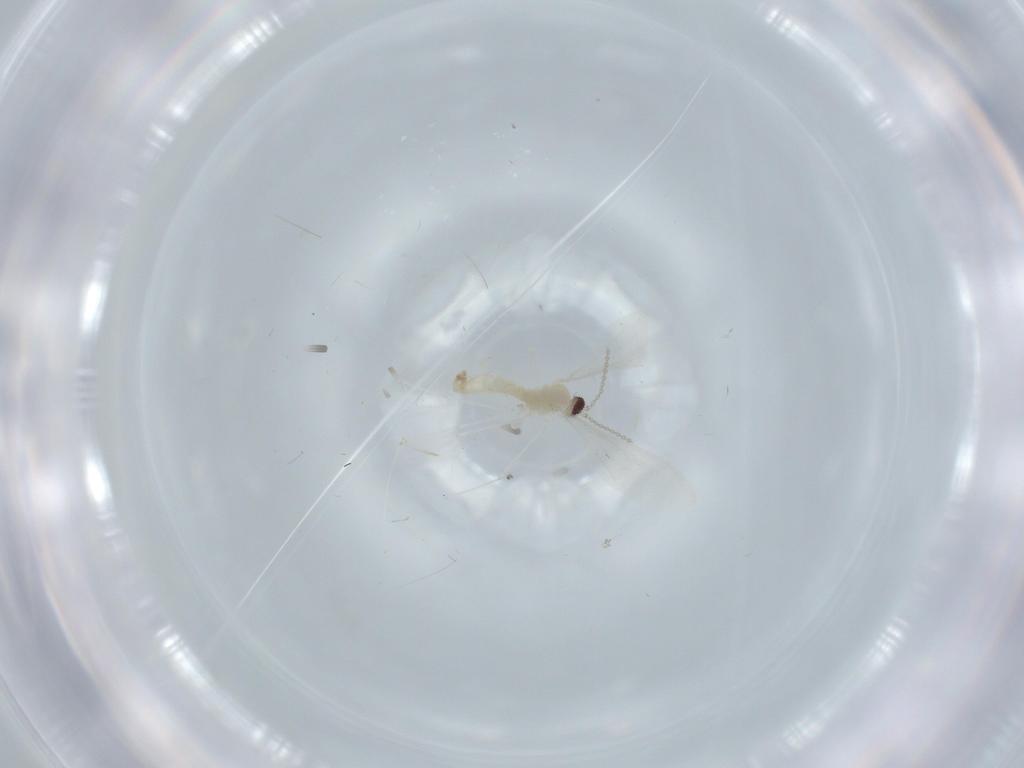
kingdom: Animalia
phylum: Arthropoda
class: Insecta
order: Diptera
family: Cecidomyiidae
